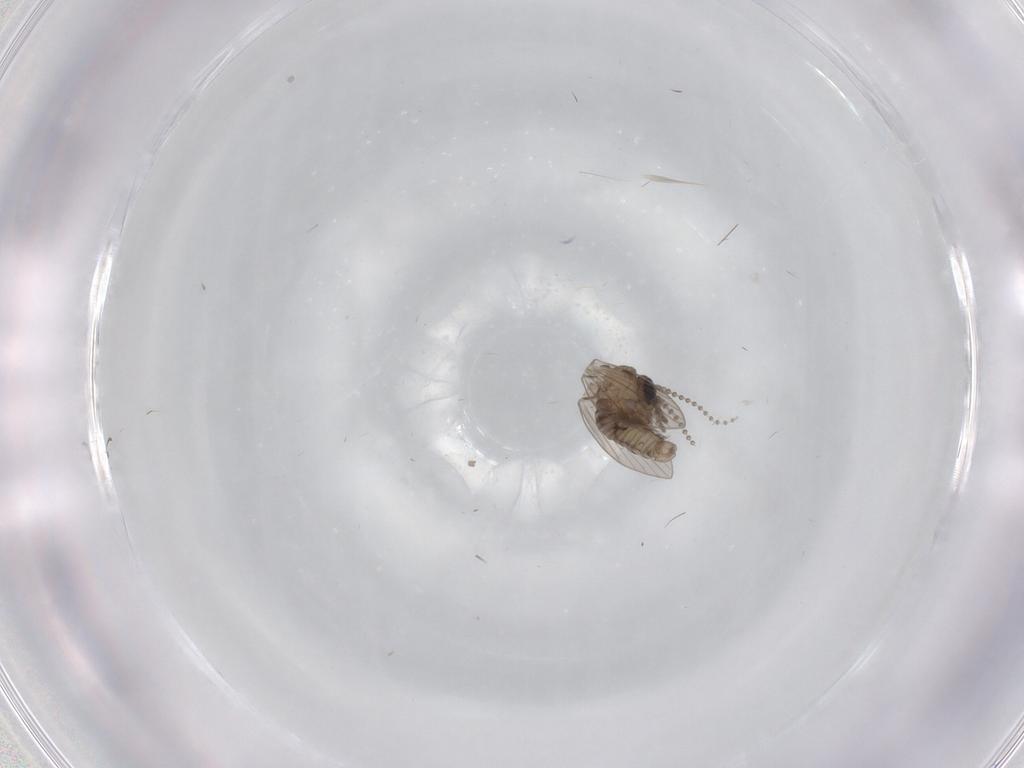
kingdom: Animalia
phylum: Arthropoda
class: Insecta
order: Diptera
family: Psychodidae
